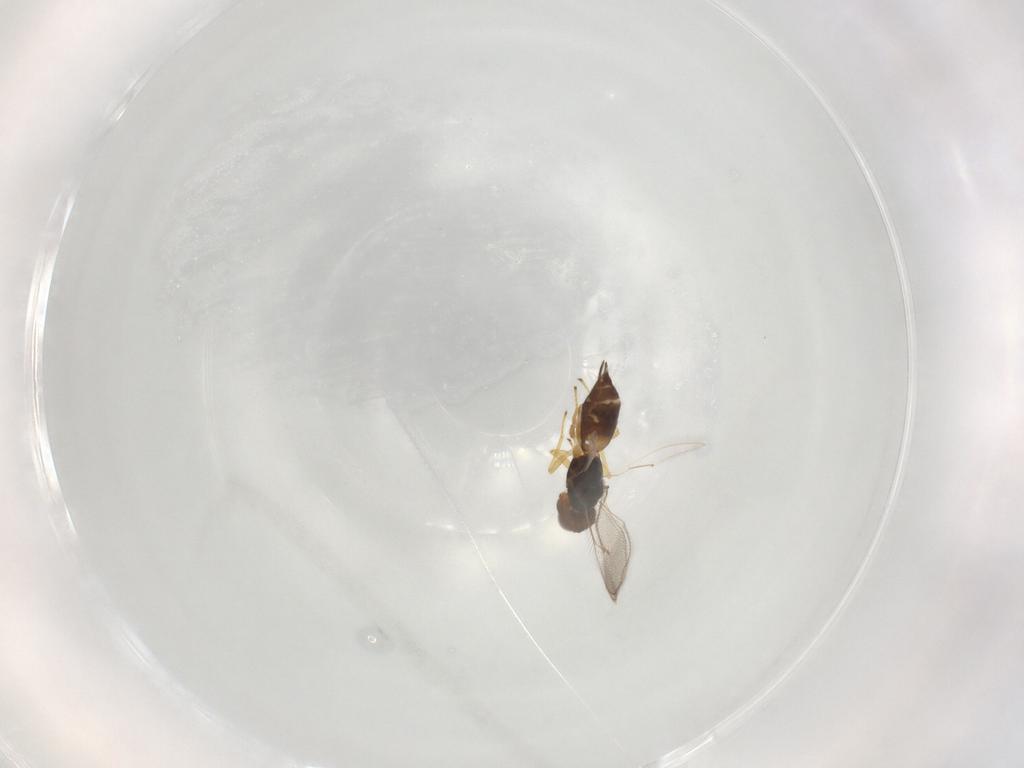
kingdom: Animalia
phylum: Arthropoda
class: Insecta
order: Hymenoptera
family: Eulophidae
